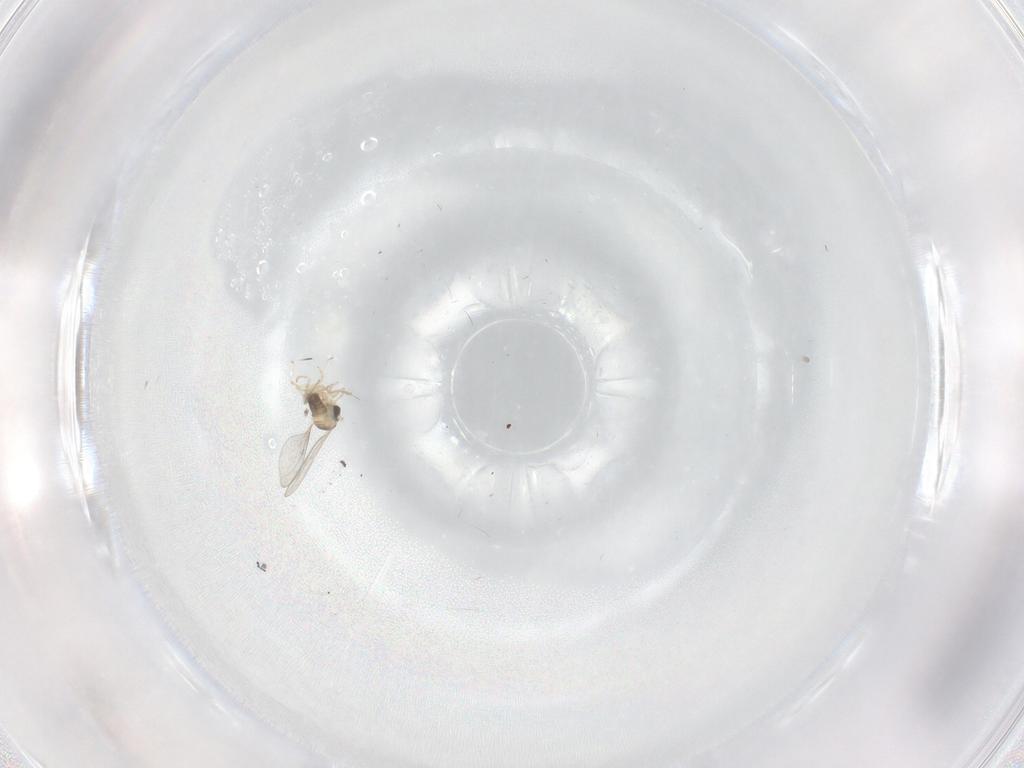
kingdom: Animalia
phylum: Arthropoda
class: Insecta
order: Diptera
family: Cecidomyiidae
